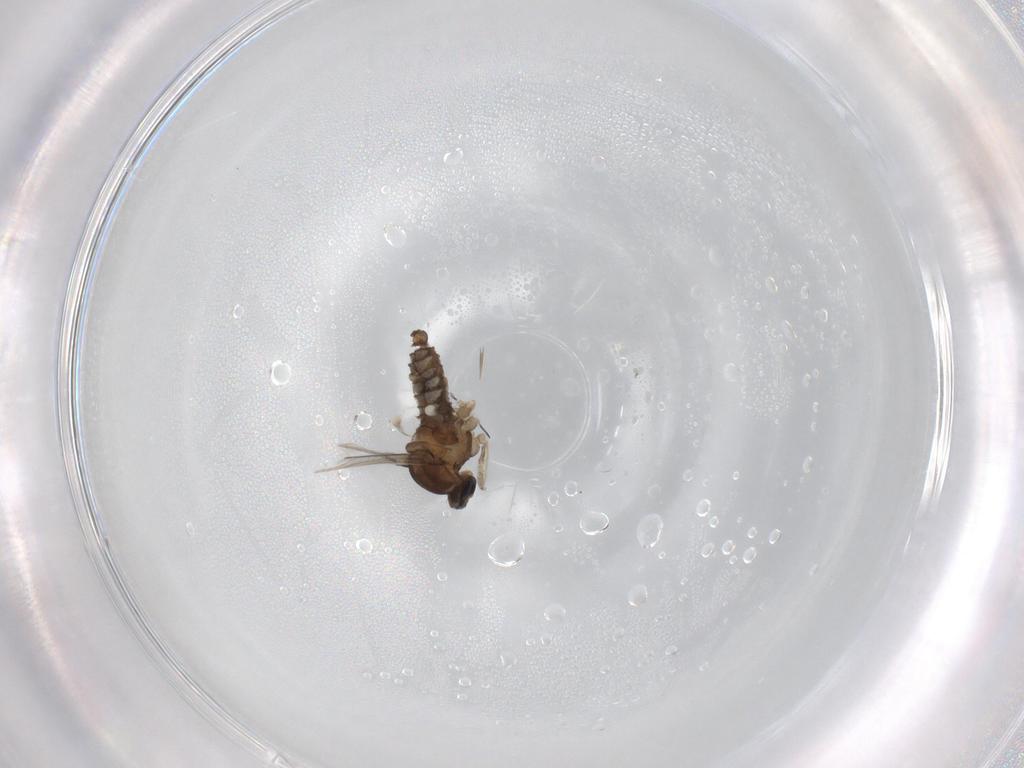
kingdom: Animalia
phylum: Arthropoda
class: Insecta
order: Diptera
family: Cecidomyiidae
